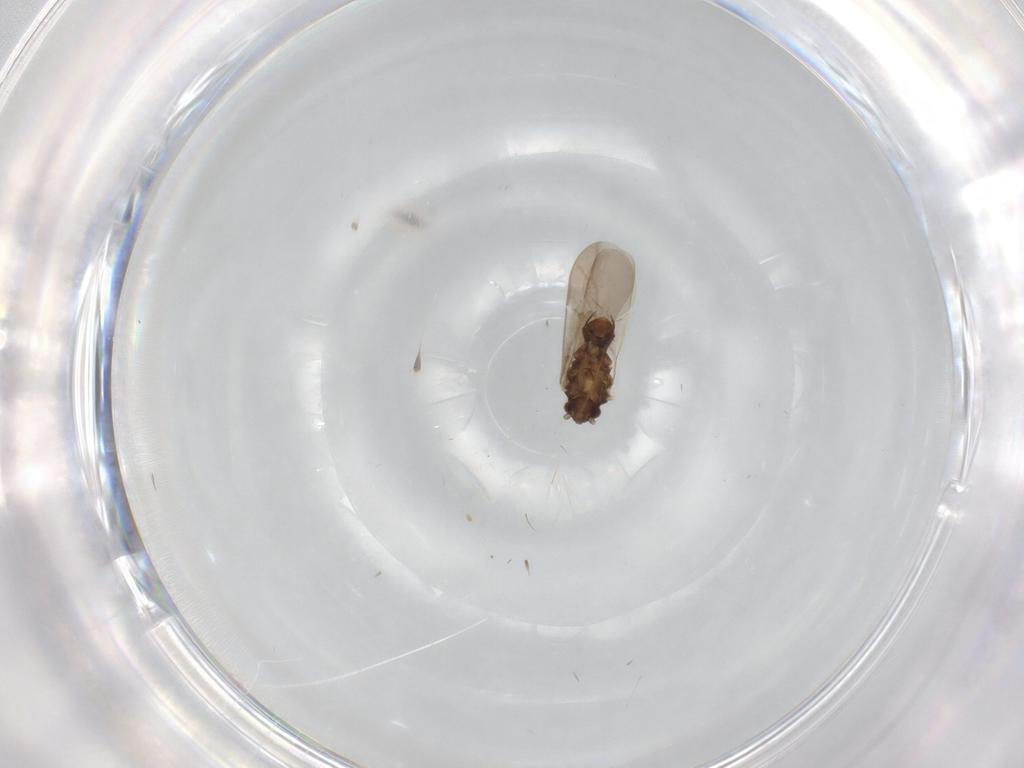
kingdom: Animalia
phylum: Arthropoda
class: Insecta
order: Hemiptera
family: Ceratocombidae
